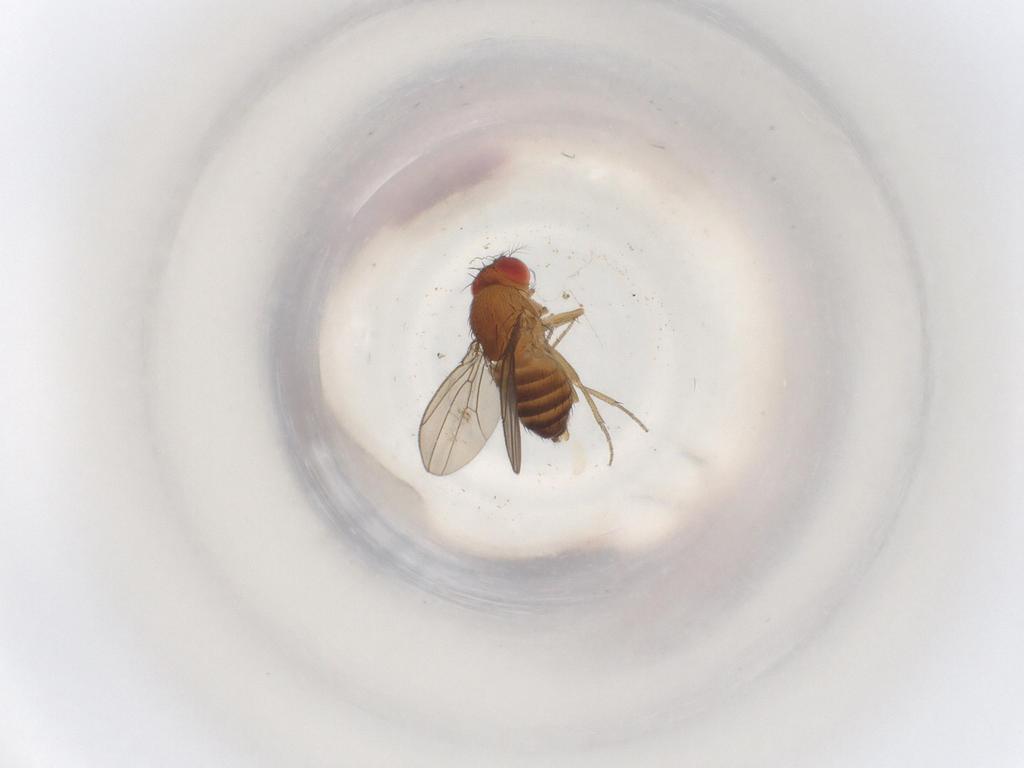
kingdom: Animalia
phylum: Arthropoda
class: Insecta
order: Diptera
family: Drosophilidae
